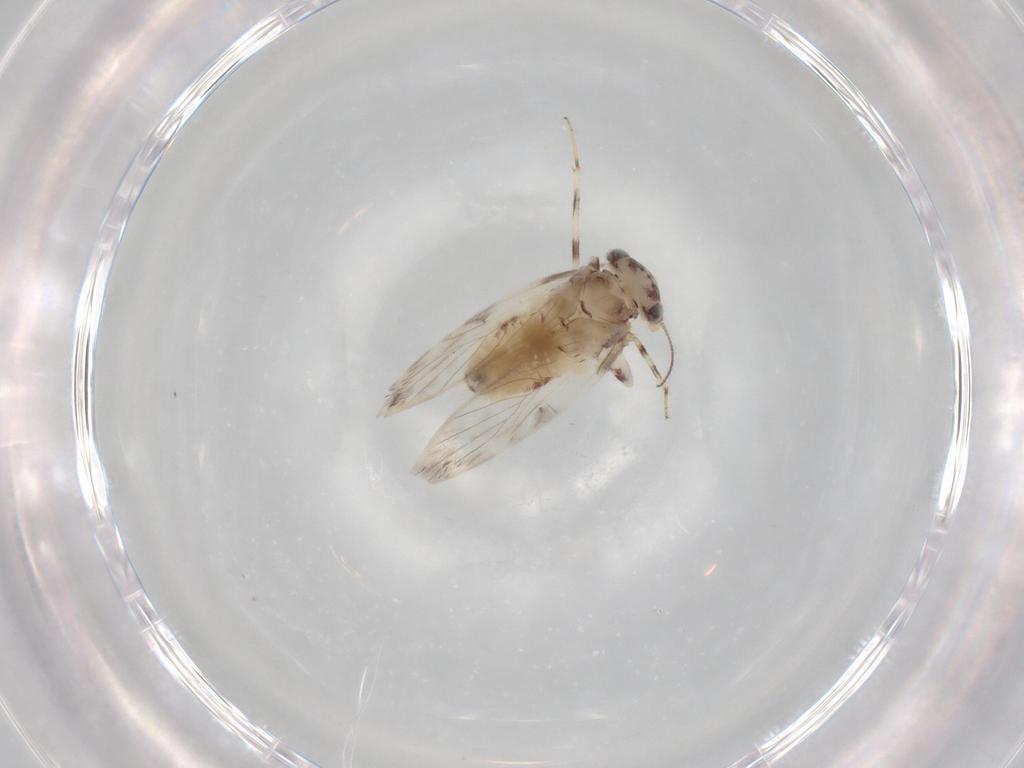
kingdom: Animalia
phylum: Arthropoda
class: Insecta
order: Psocodea
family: Lepidopsocidae
